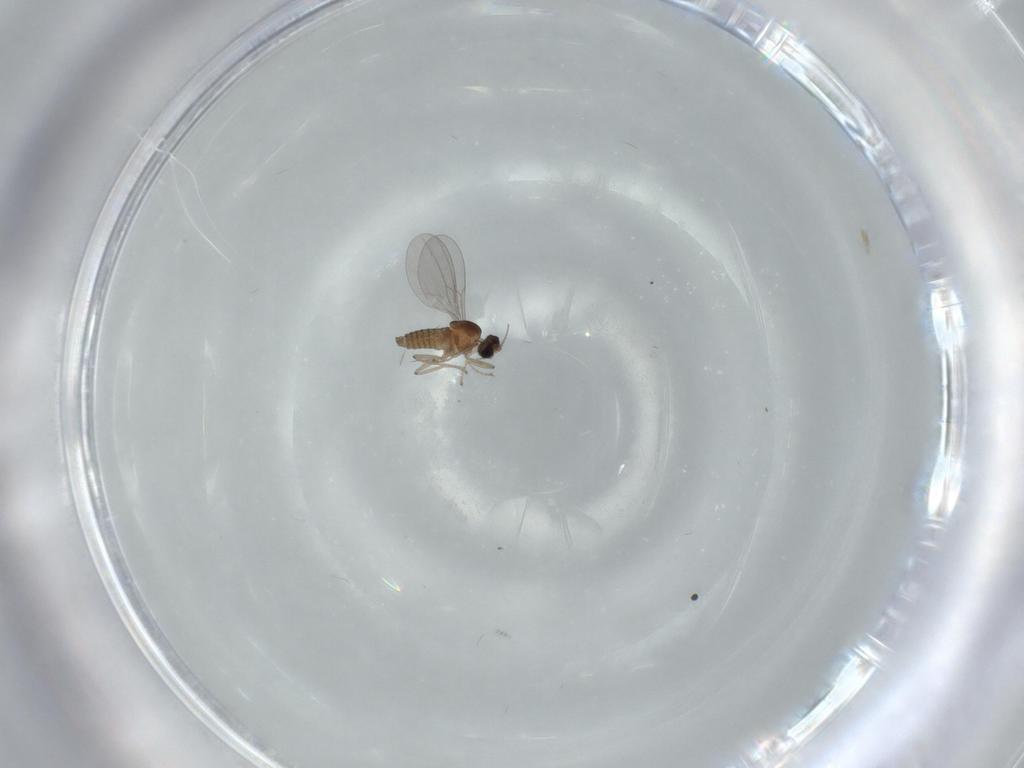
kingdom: Animalia
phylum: Arthropoda
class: Insecta
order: Diptera
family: Cecidomyiidae
